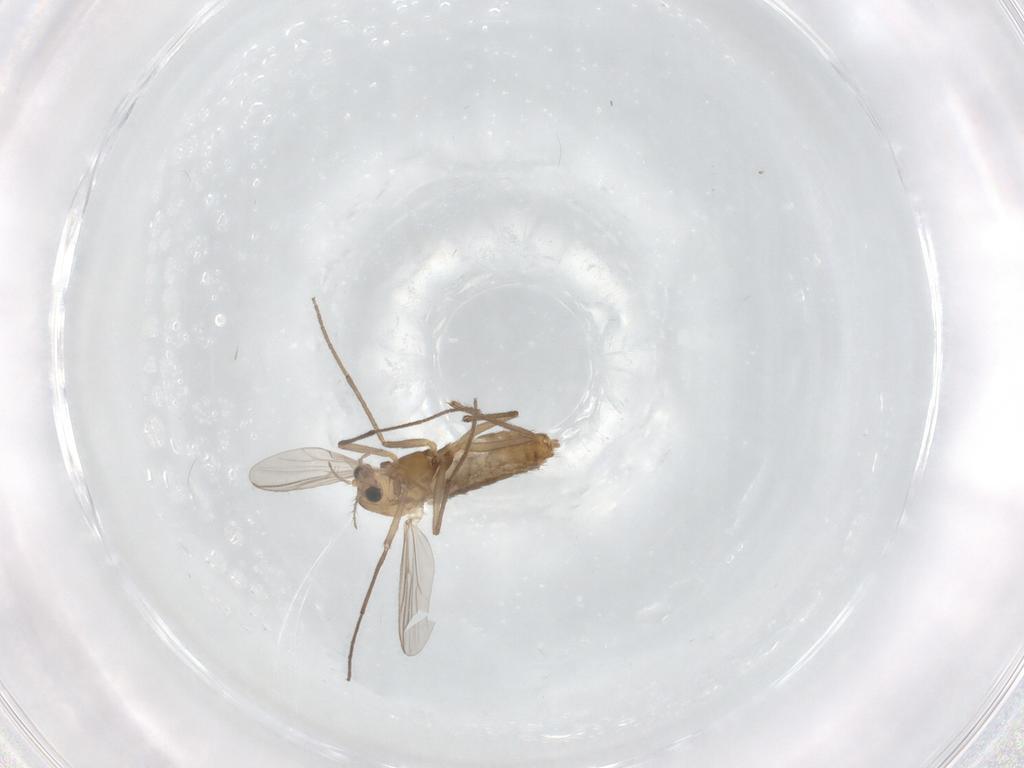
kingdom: Animalia
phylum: Arthropoda
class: Insecta
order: Diptera
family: Chironomidae
